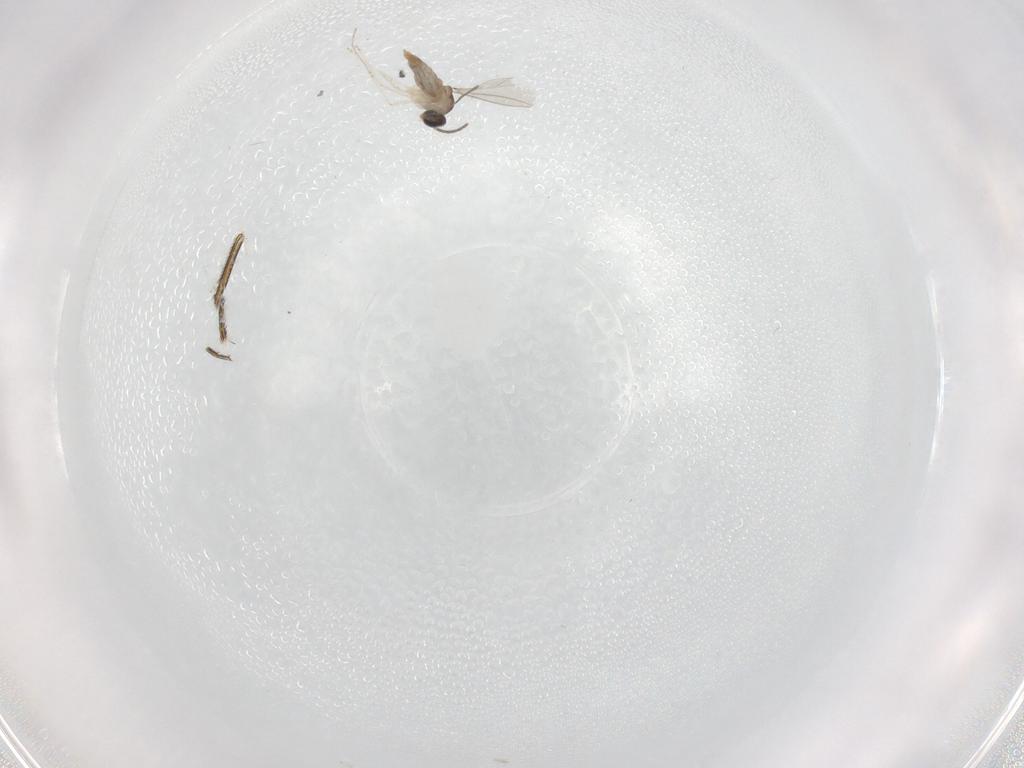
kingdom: Animalia
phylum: Arthropoda
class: Insecta
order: Diptera
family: Cecidomyiidae
